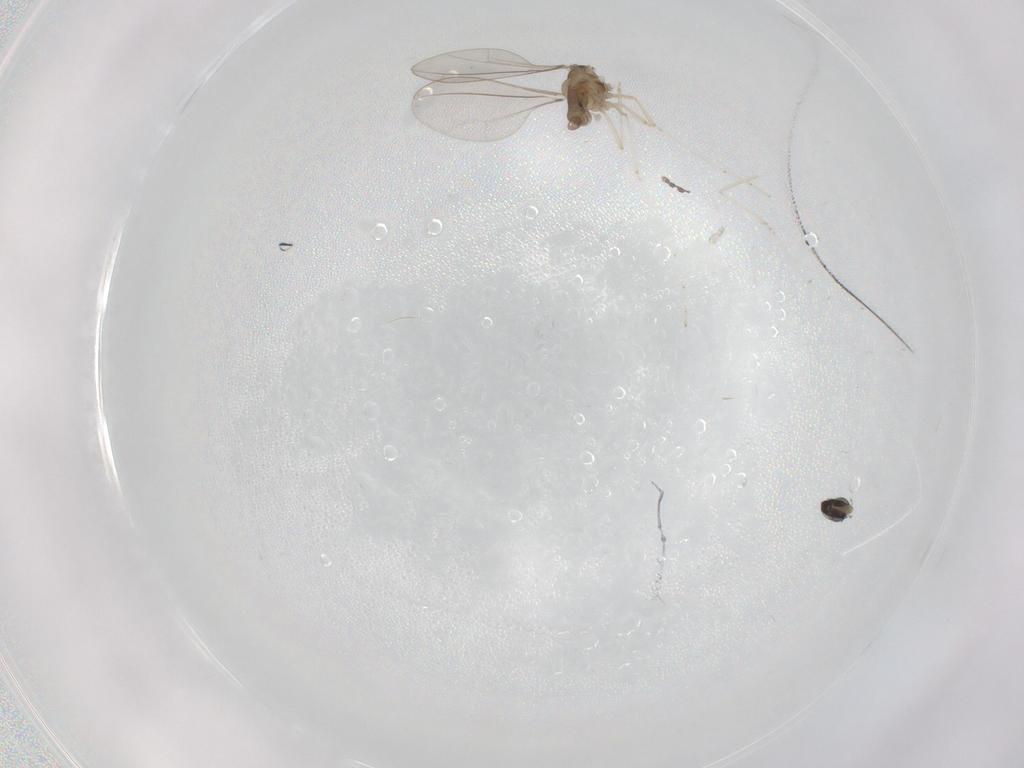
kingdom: Animalia
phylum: Arthropoda
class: Insecta
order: Diptera
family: Cecidomyiidae
